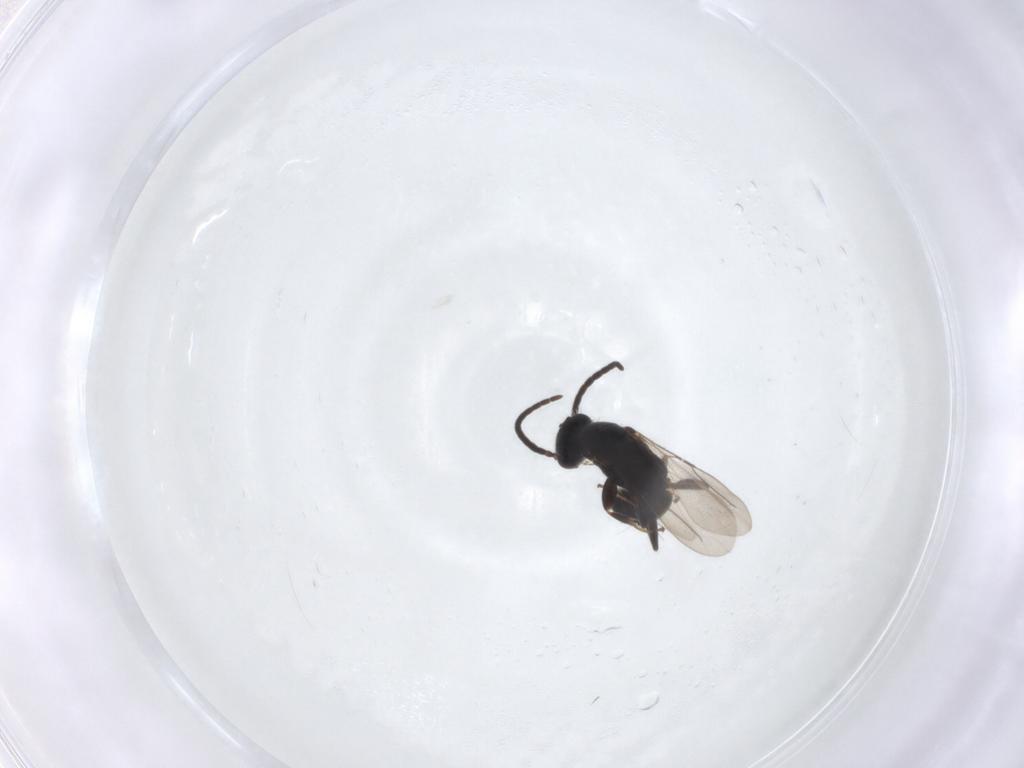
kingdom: Animalia
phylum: Arthropoda
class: Insecta
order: Hymenoptera
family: Bethylidae
